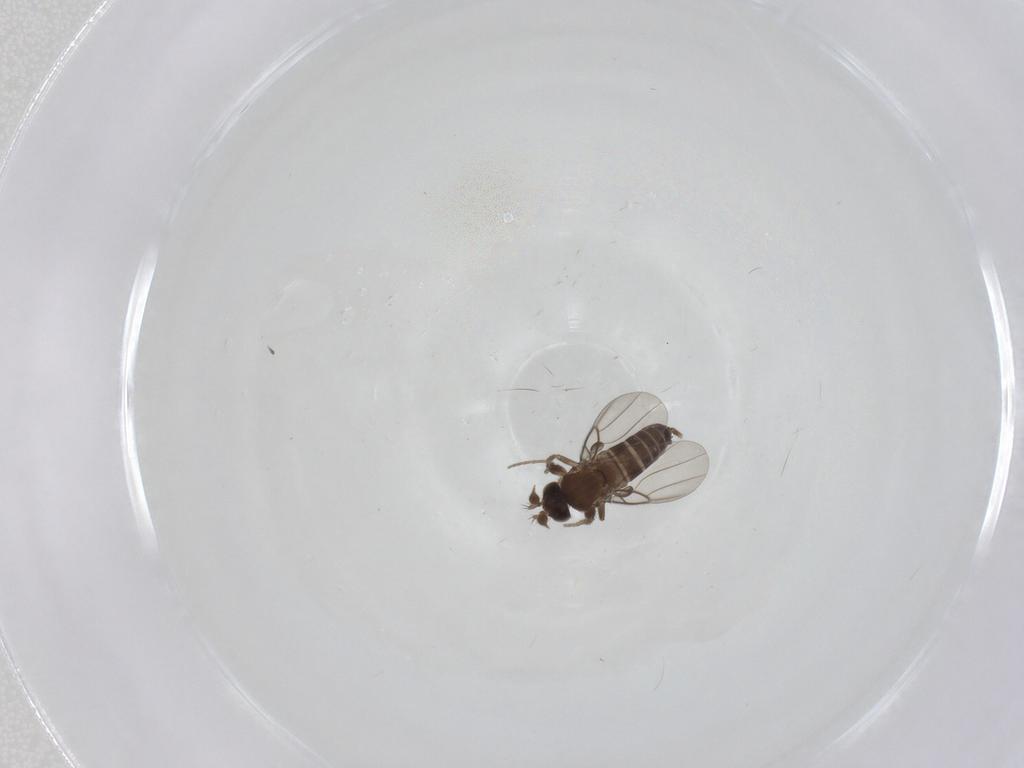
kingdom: Animalia
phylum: Arthropoda
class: Insecta
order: Diptera
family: Phoridae
